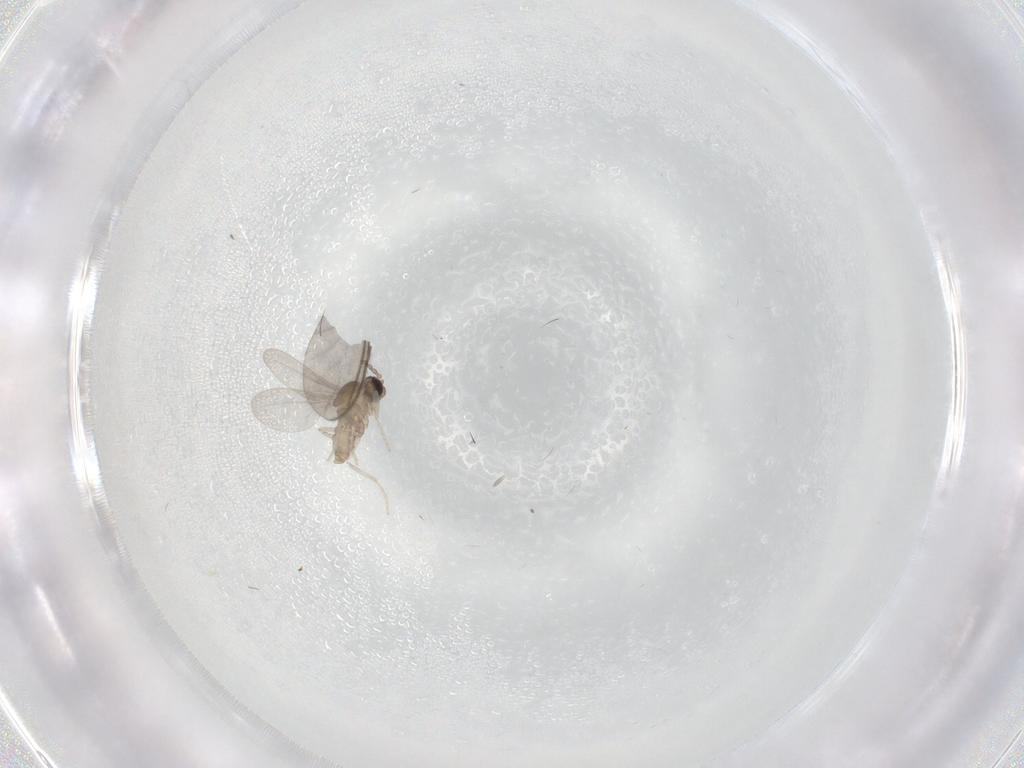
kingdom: Animalia
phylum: Arthropoda
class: Insecta
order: Diptera
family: Cecidomyiidae
